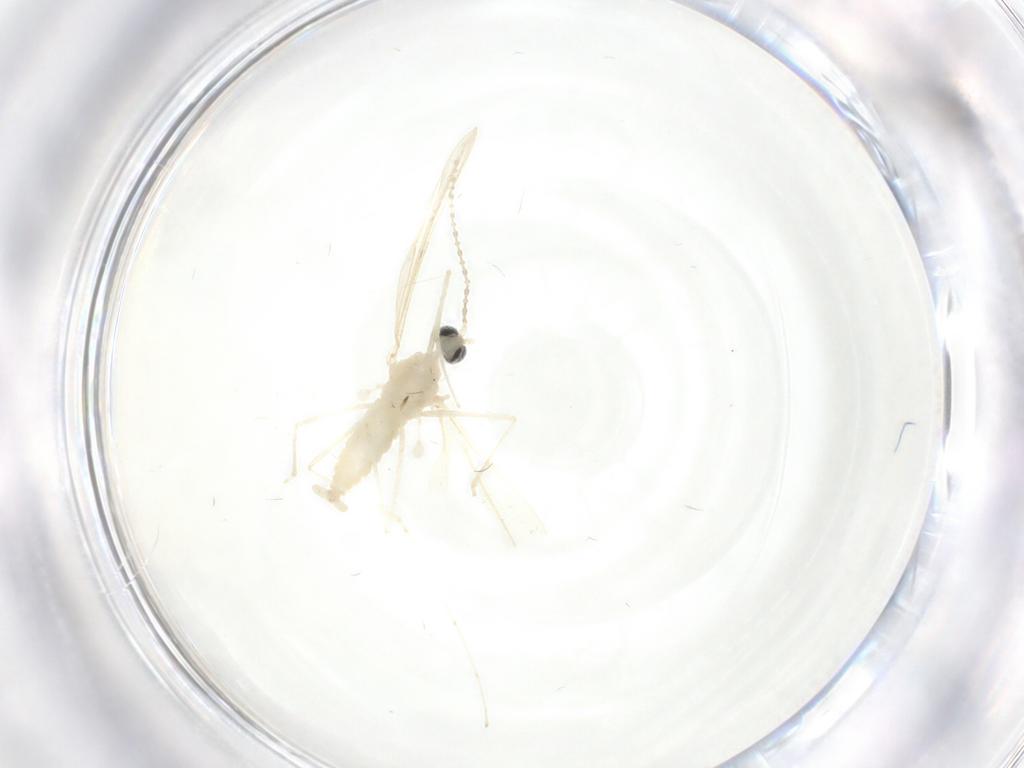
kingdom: Animalia
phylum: Arthropoda
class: Insecta
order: Diptera
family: Cecidomyiidae
